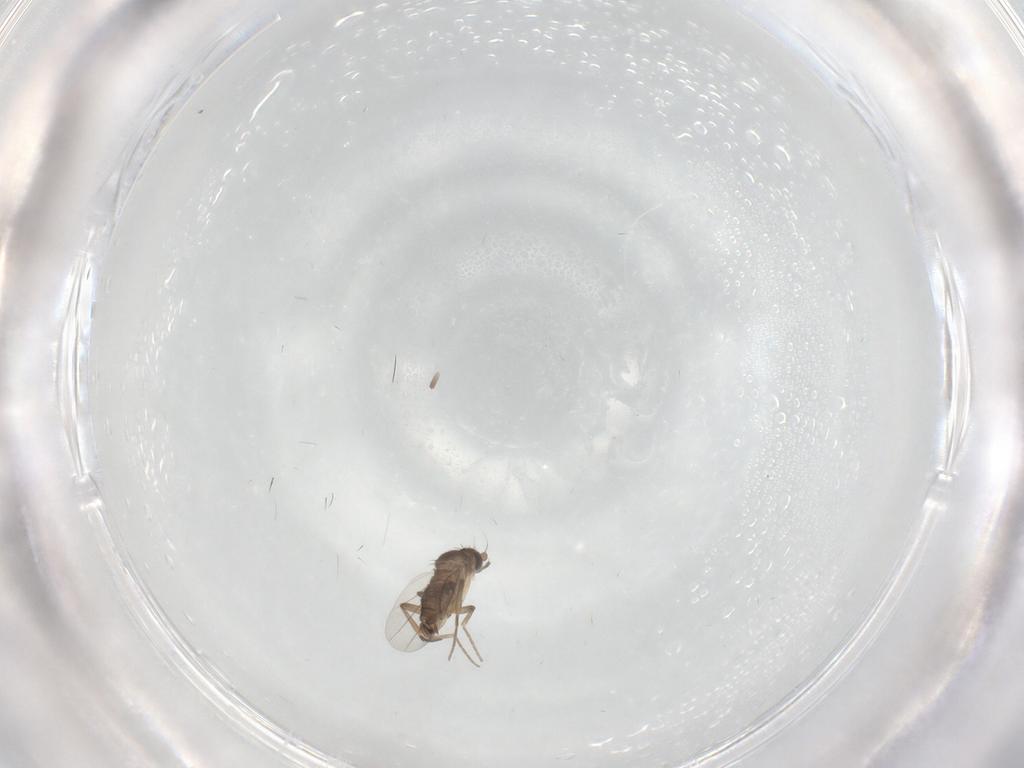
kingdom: Animalia
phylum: Arthropoda
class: Insecta
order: Diptera
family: Phoridae
